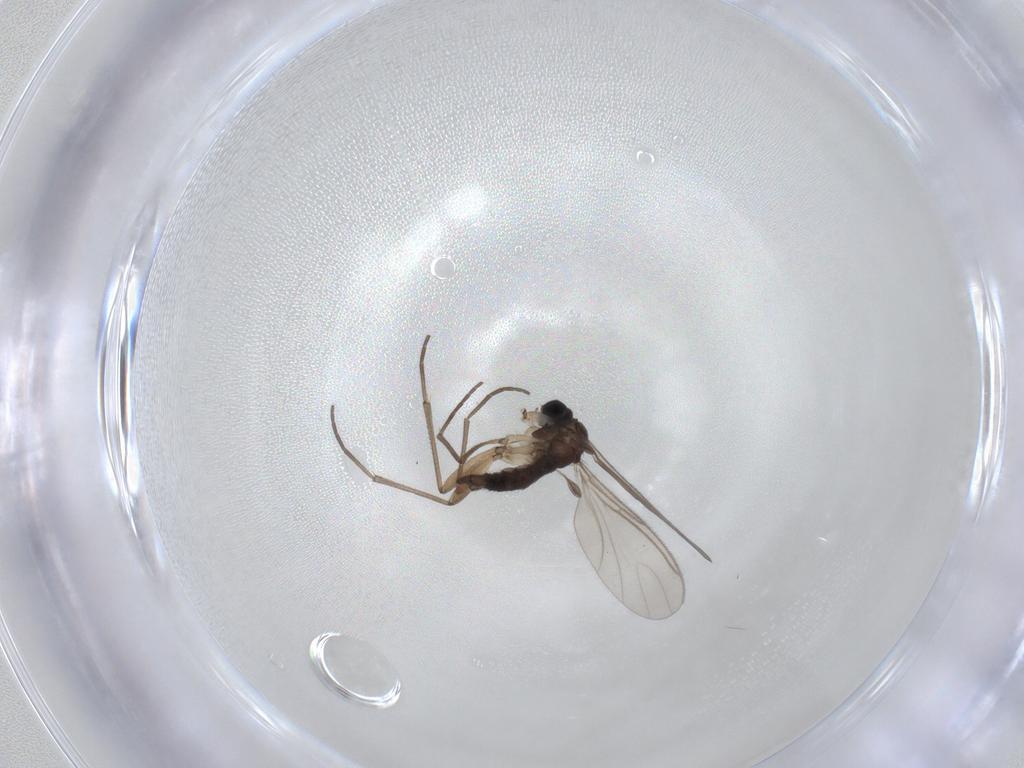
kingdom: Animalia
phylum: Arthropoda
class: Insecta
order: Diptera
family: Sciaridae
